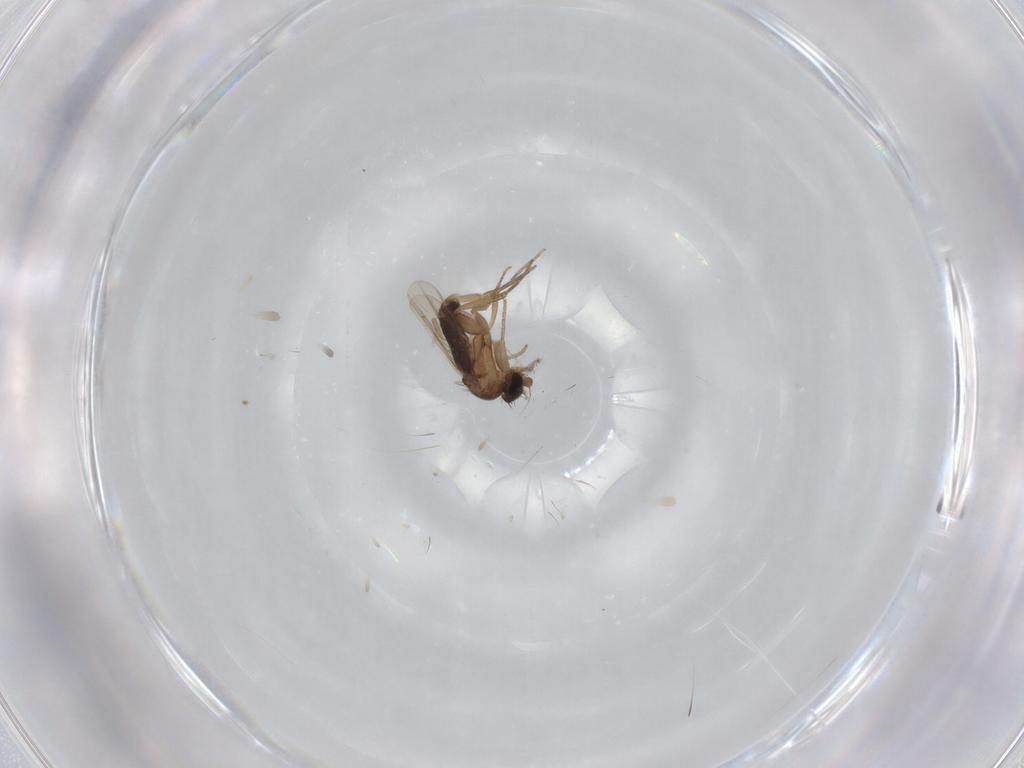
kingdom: Animalia
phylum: Arthropoda
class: Insecta
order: Diptera
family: Phoridae
